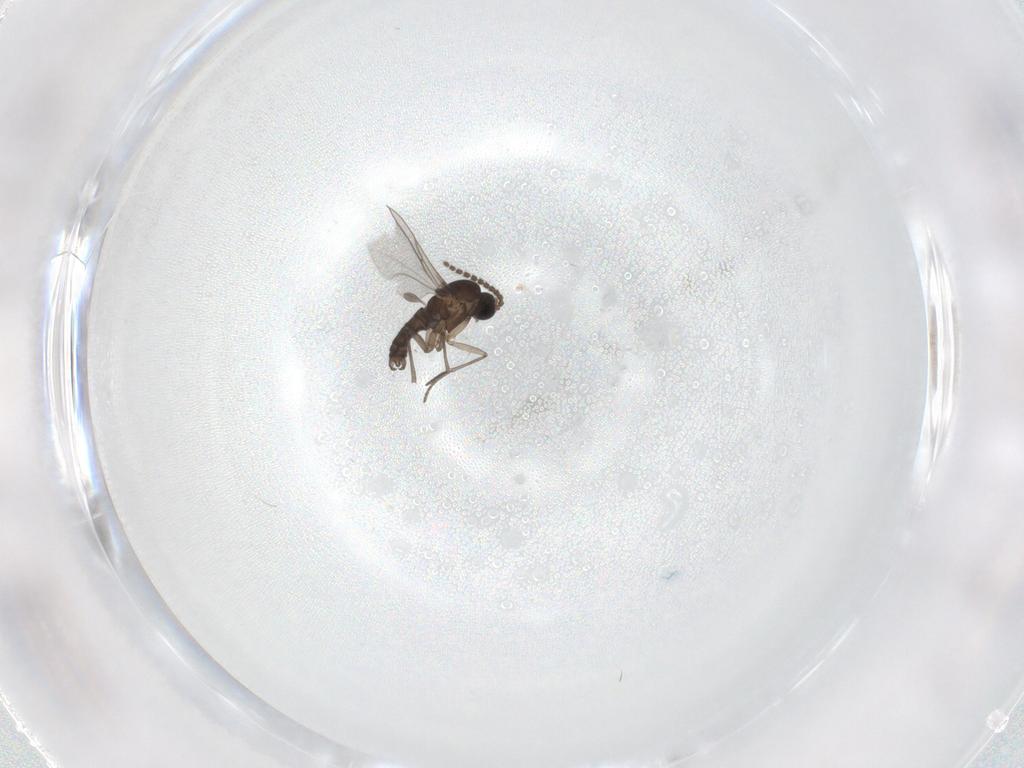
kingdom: Animalia
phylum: Arthropoda
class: Insecta
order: Diptera
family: Sciaridae
